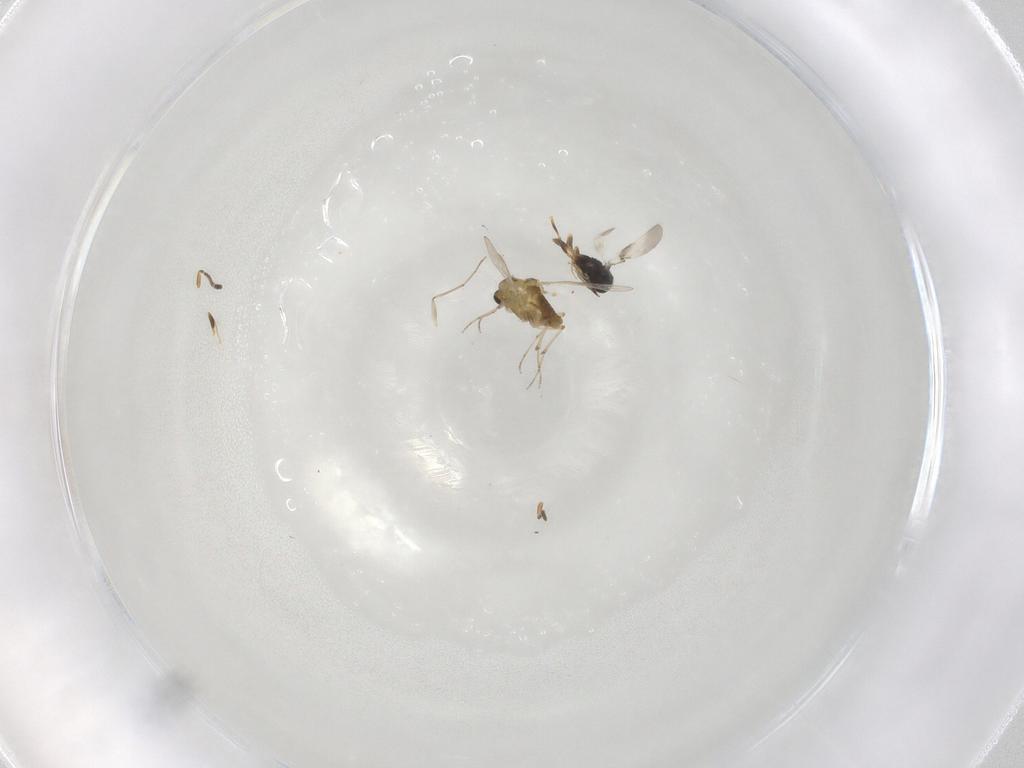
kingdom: Animalia
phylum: Arthropoda
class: Insecta
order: Diptera
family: Chironomidae
